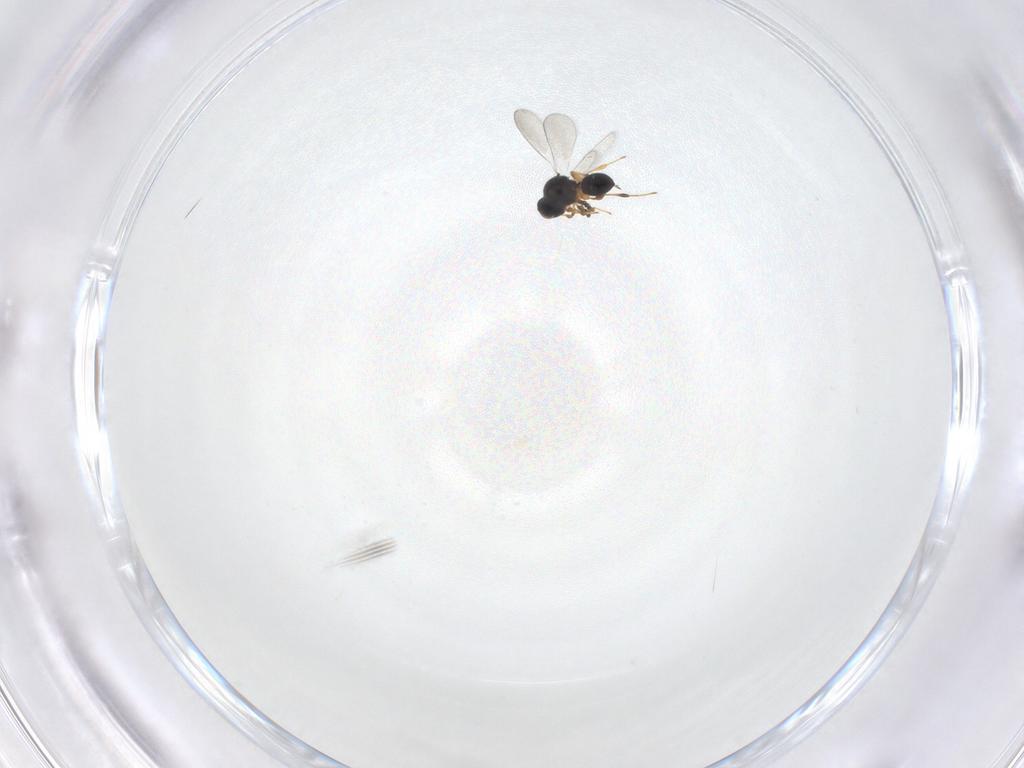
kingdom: Animalia
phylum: Arthropoda
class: Insecta
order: Hymenoptera
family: Platygastridae
